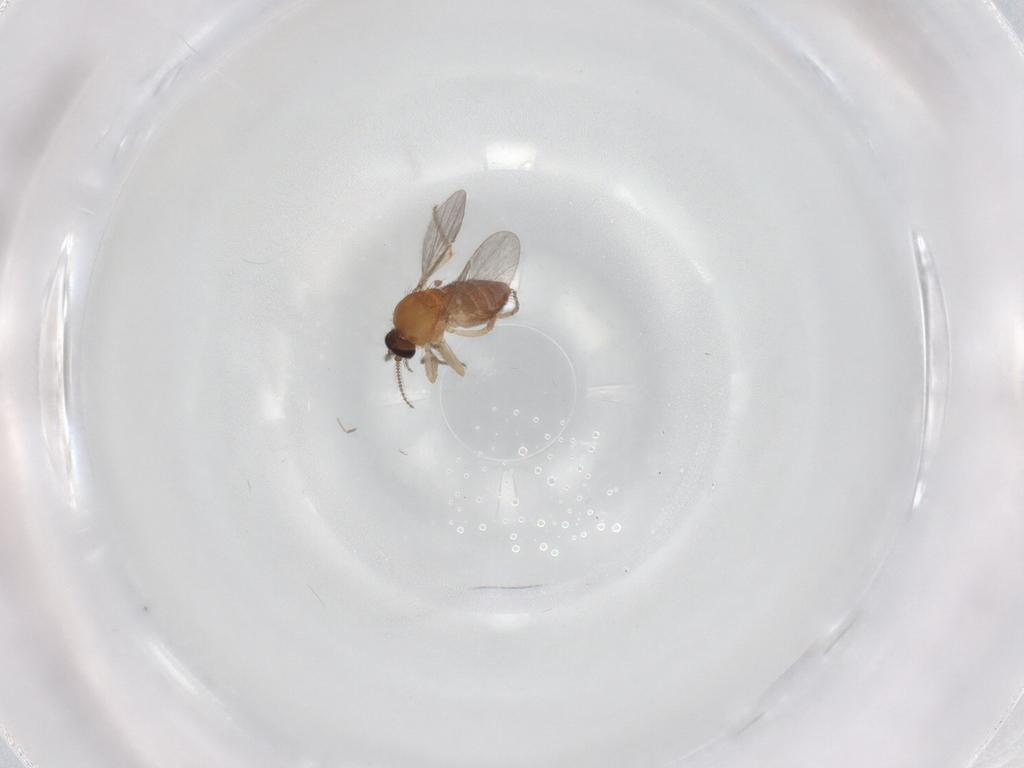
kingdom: Animalia
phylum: Arthropoda
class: Insecta
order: Diptera
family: Ceratopogonidae
